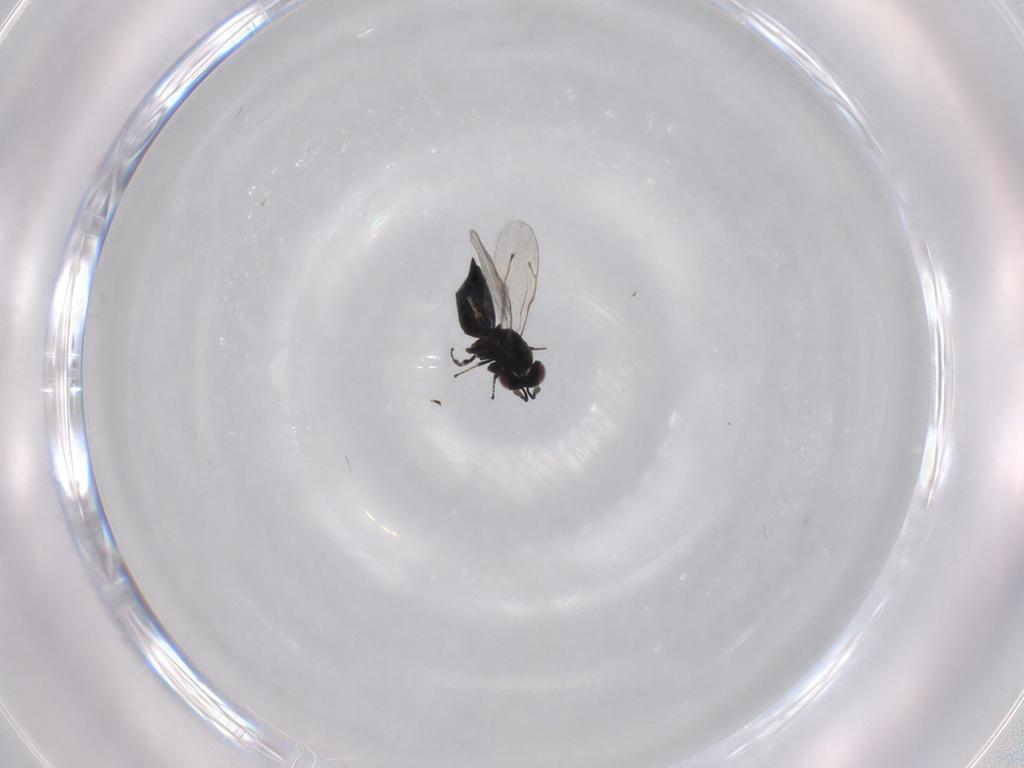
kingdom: Animalia
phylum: Arthropoda
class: Insecta
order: Hymenoptera
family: Pteromalidae
